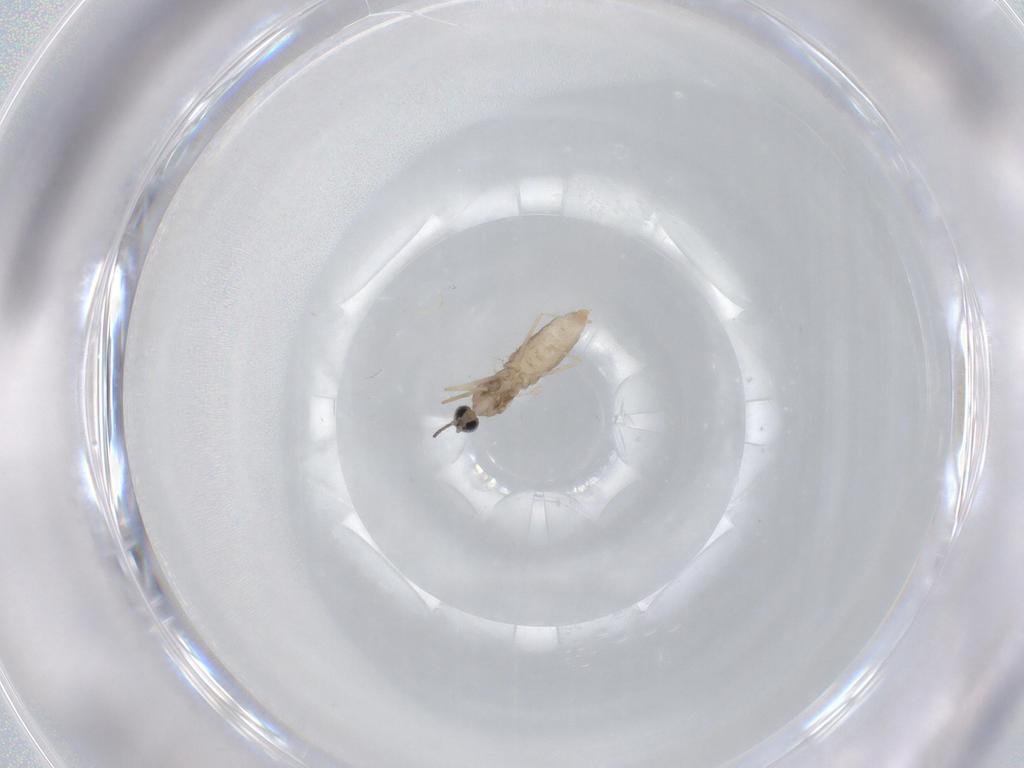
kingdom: Animalia
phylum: Arthropoda
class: Insecta
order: Diptera
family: Cecidomyiidae
